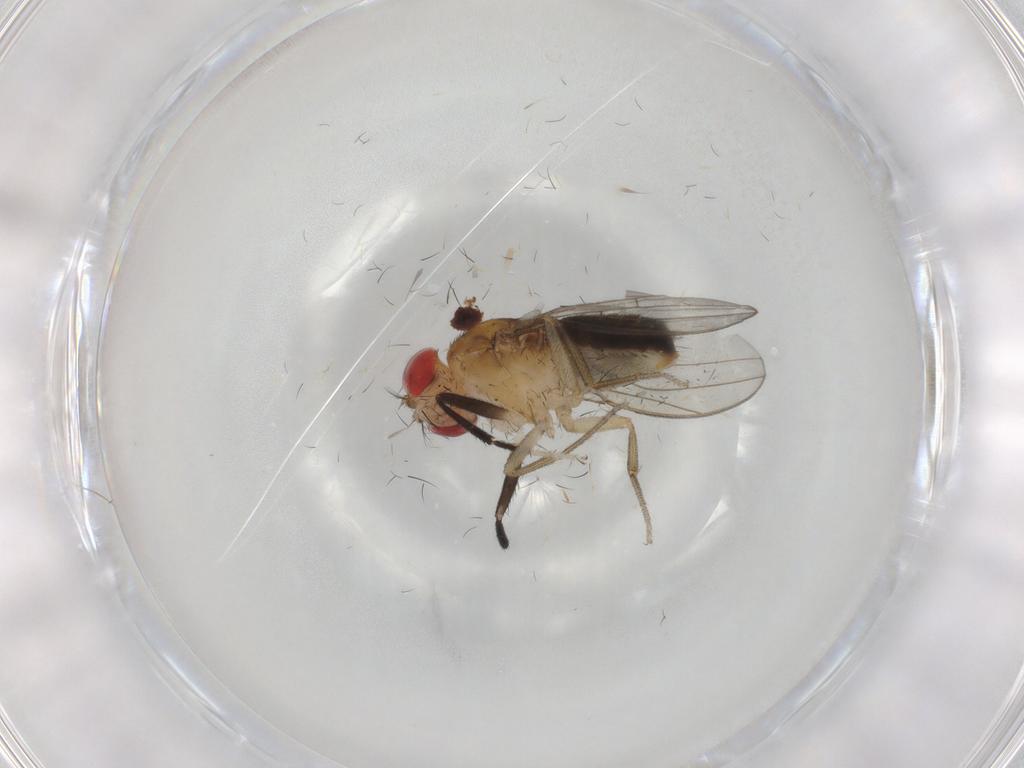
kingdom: Animalia
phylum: Arthropoda
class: Insecta
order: Diptera
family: Drosophilidae
